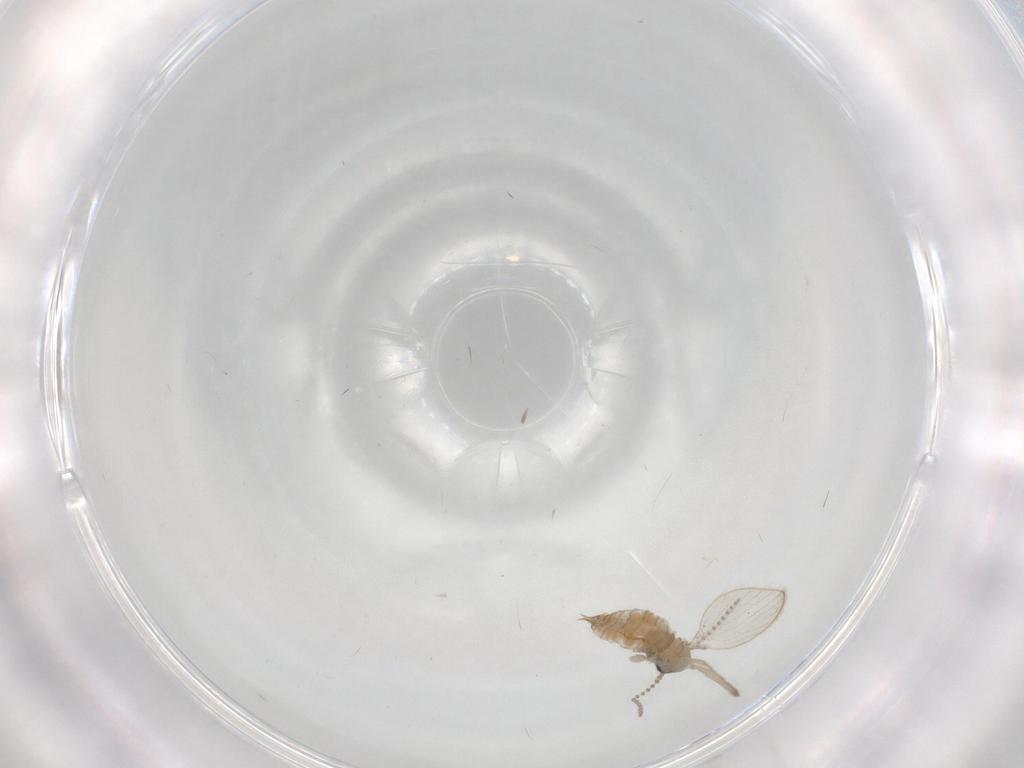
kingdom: Animalia
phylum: Arthropoda
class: Insecta
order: Diptera
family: Psychodidae
